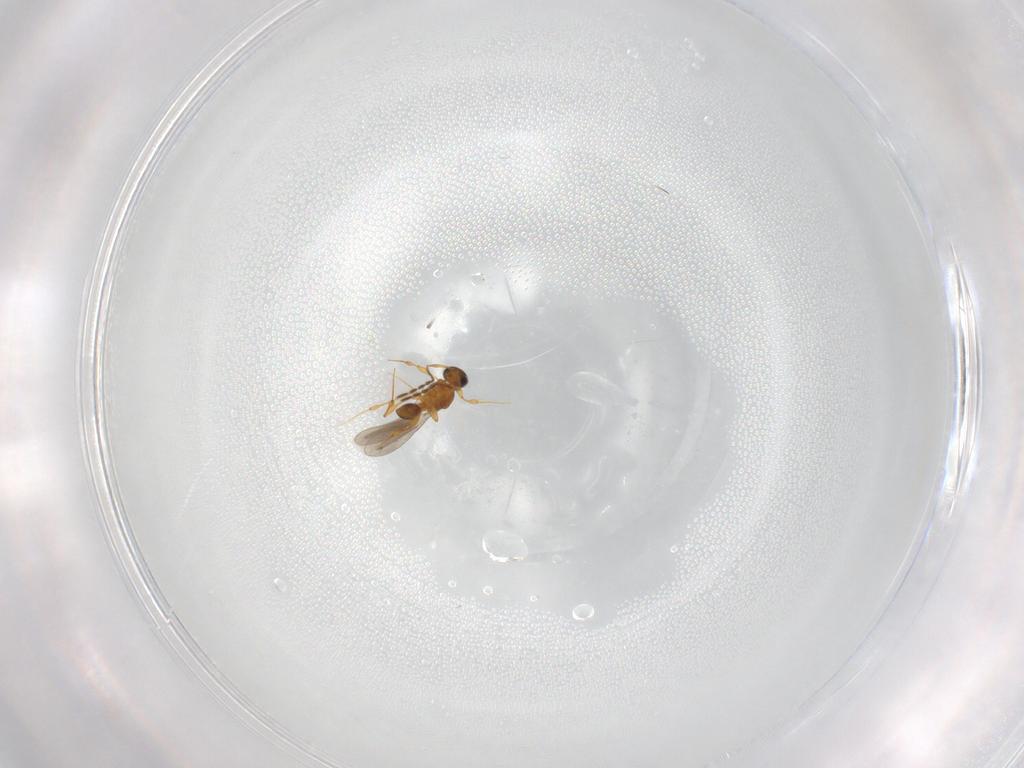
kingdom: Animalia
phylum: Arthropoda
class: Insecta
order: Hymenoptera
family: Platygastridae
